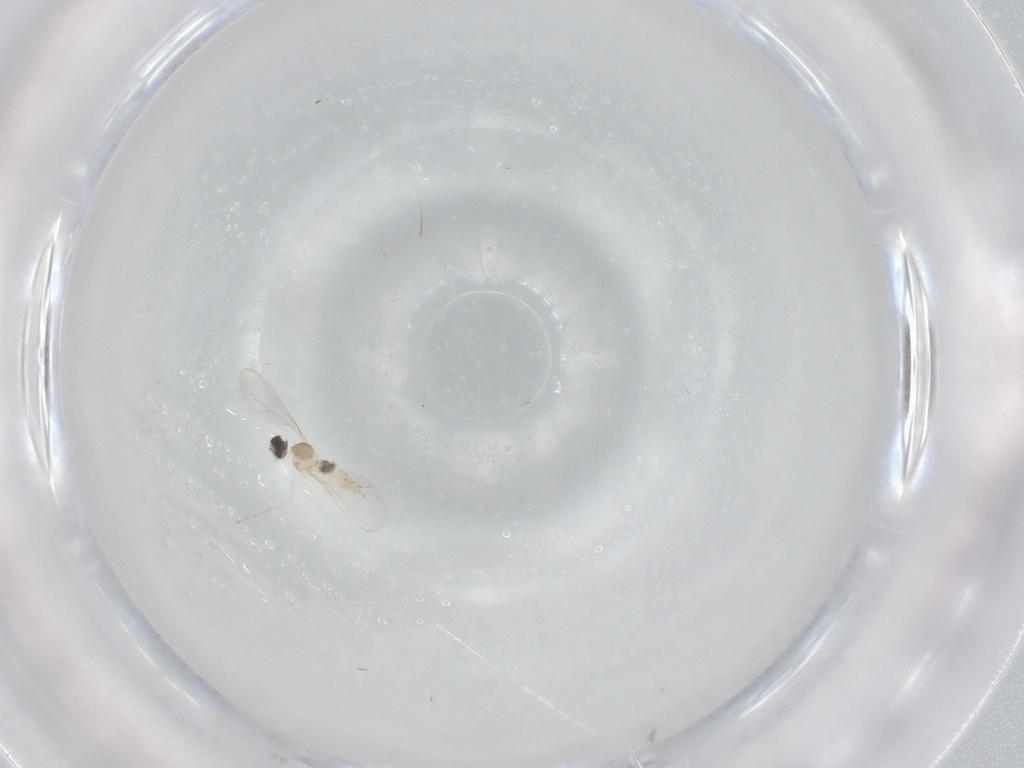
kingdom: Animalia
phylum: Arthropoda
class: Insecta
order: Diptera
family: Cecidomyiidae
